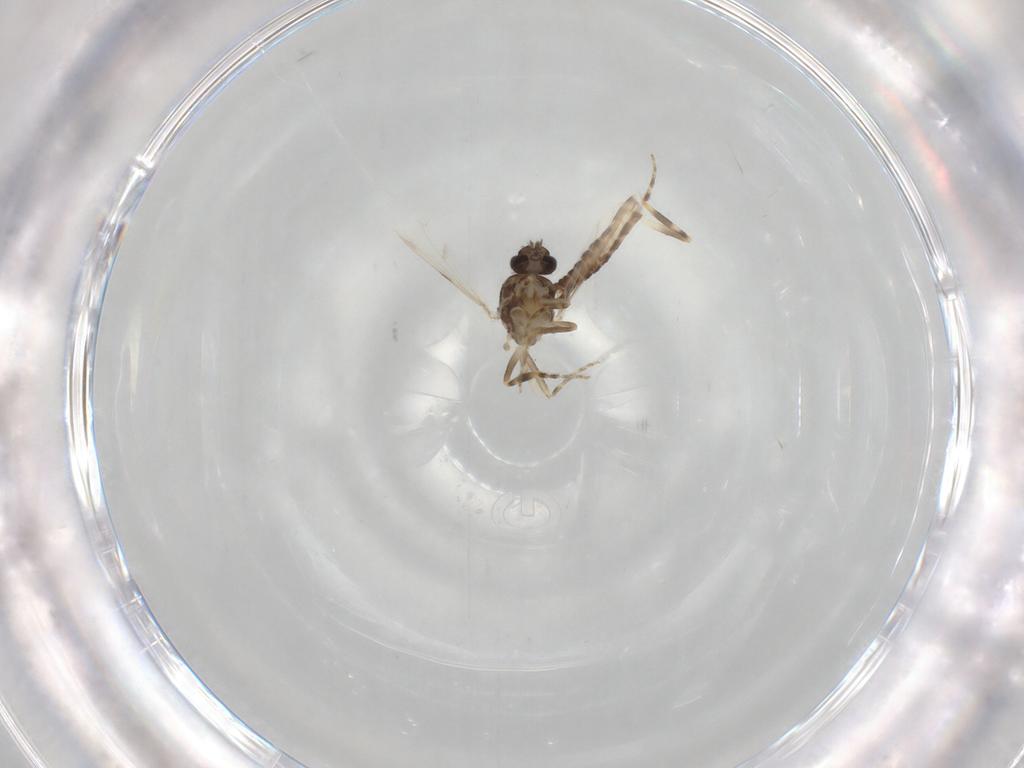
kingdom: Animalia
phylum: Arthropoda
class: Insecta
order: Diptera
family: Ceratopogonidae
